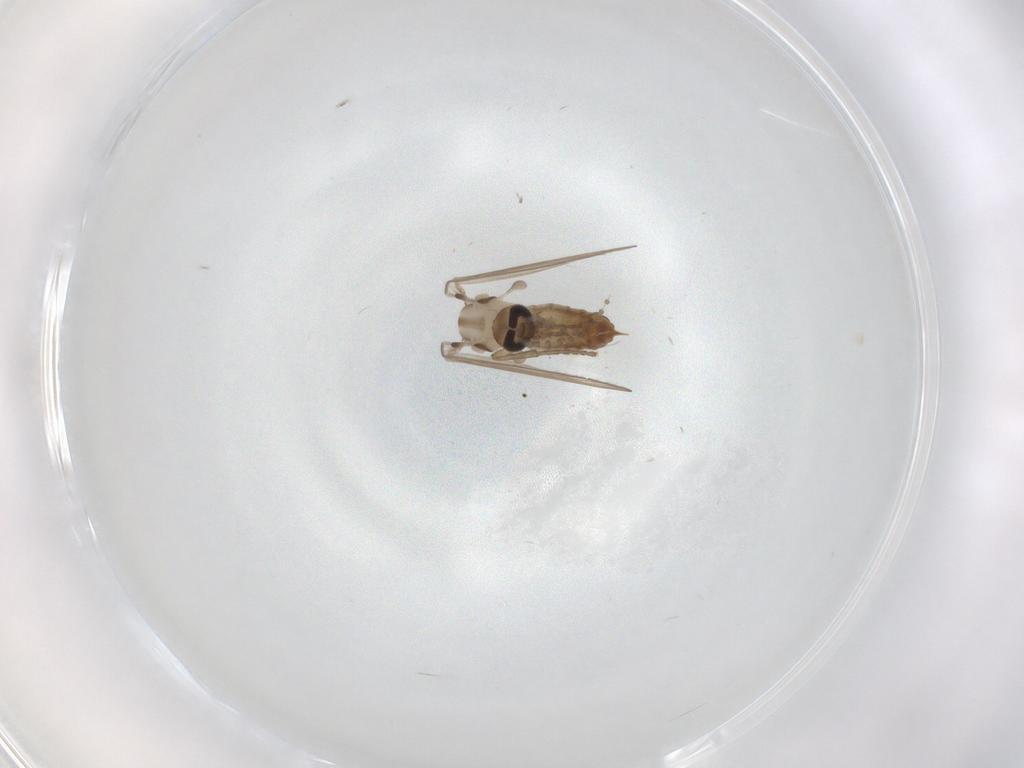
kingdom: Animalia
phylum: Arthropoda
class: Insecta
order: Diptera
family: Psychodidae
